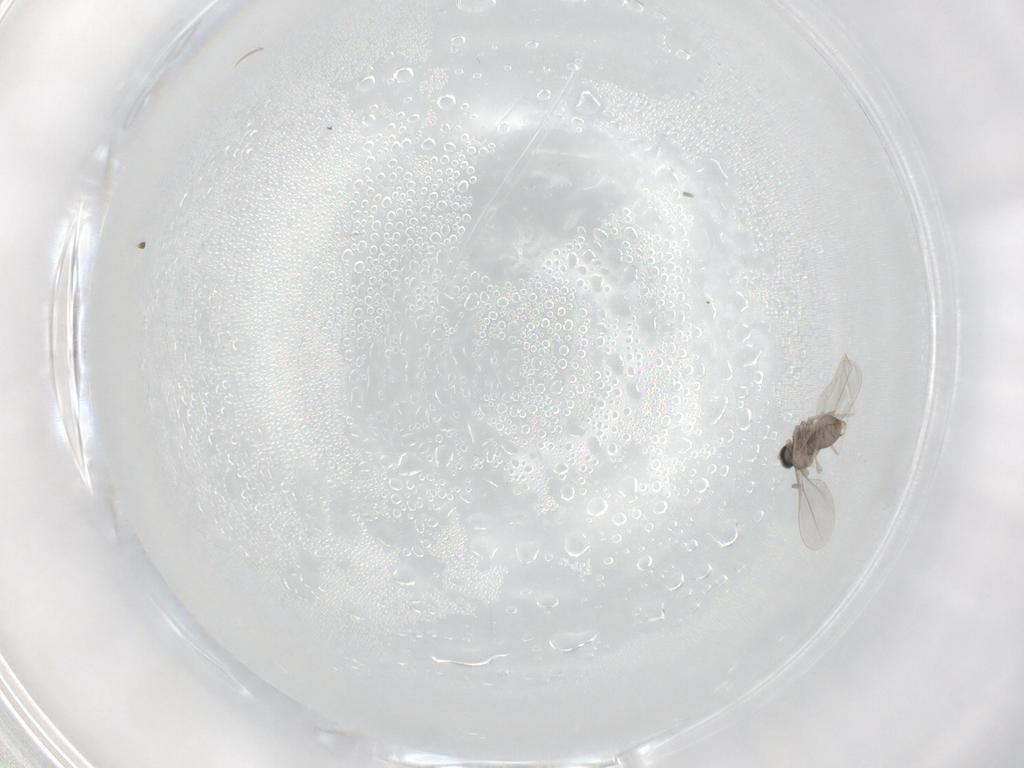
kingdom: Animalia
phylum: Arthropoda
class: Insecta
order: Diptera
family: Cecidomyiidae
